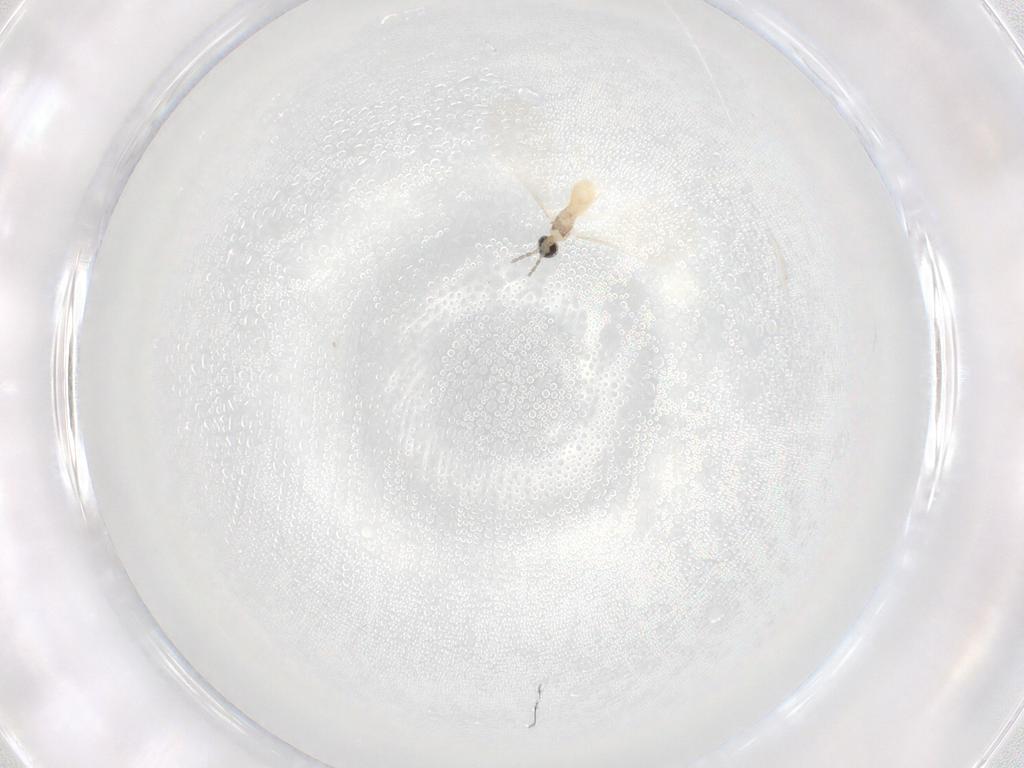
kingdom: Animalia
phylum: Arthropoda
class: Insecta
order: Diptera
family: Cecidomyiidae
